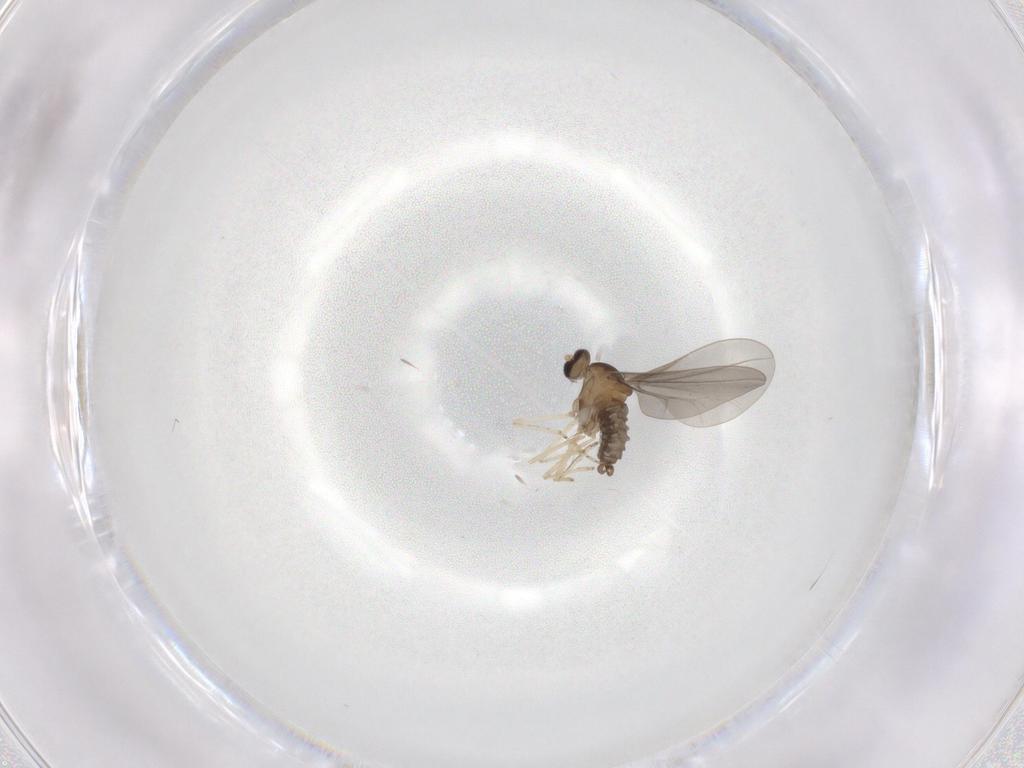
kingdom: Animalia
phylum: Arthropoda
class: Insecta
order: Diptera
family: Cecidomyiidae
